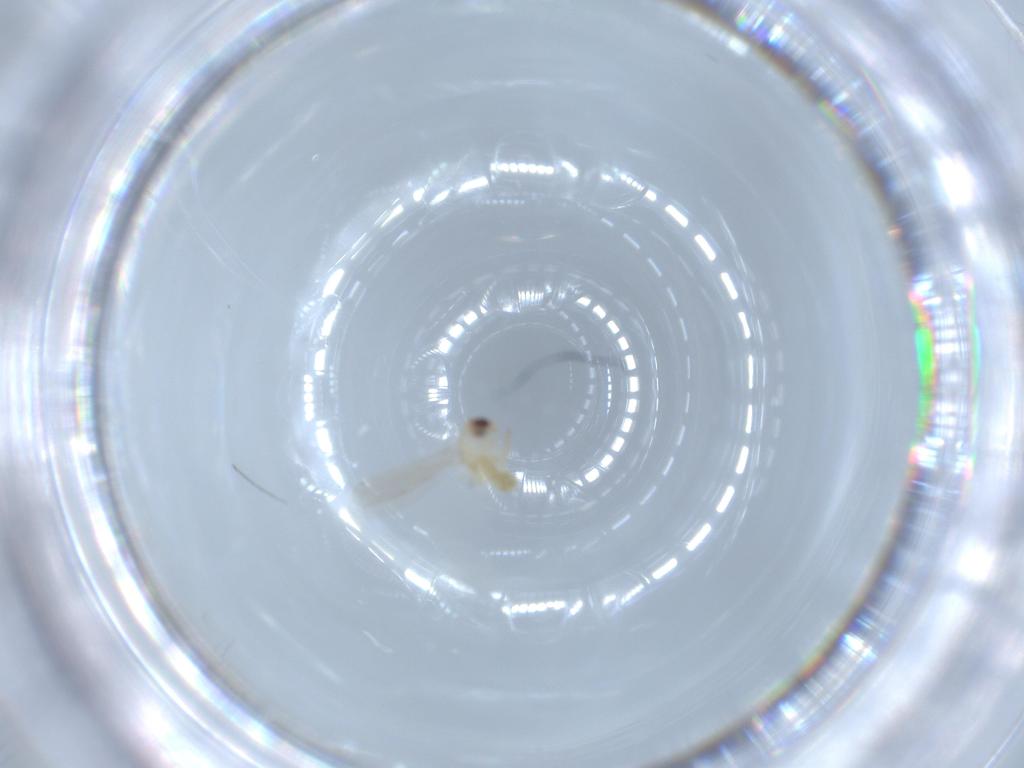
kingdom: Animalia
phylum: Arthropoda
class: Insecta
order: Diptera
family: Chironomidae
